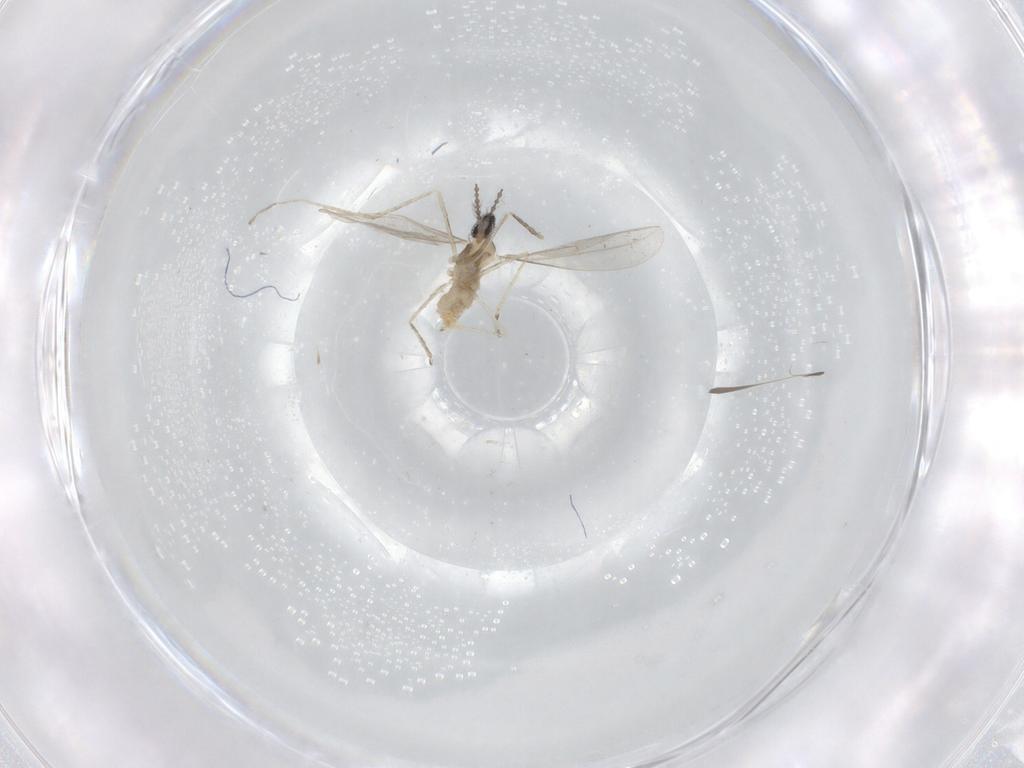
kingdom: Animalia
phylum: Arthropoda
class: Insecta
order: Diptera
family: Cecidomyiidae
